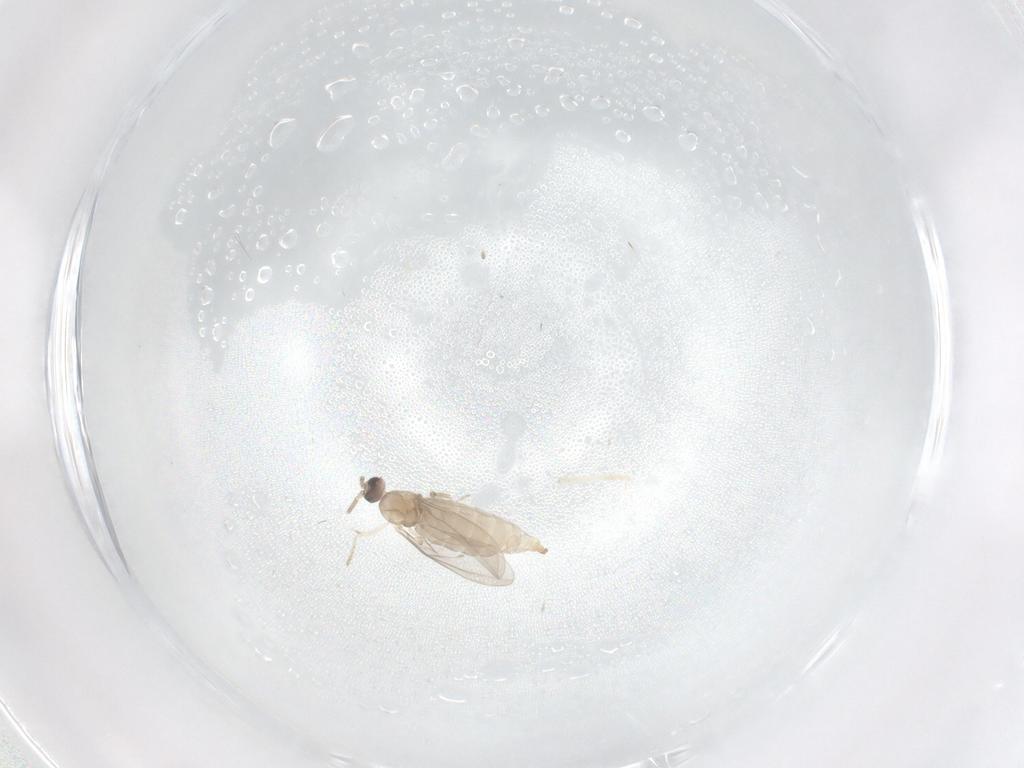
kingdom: Animalia
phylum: Arthropoda
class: Insecta
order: Diptera
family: Cecidomyiidae
